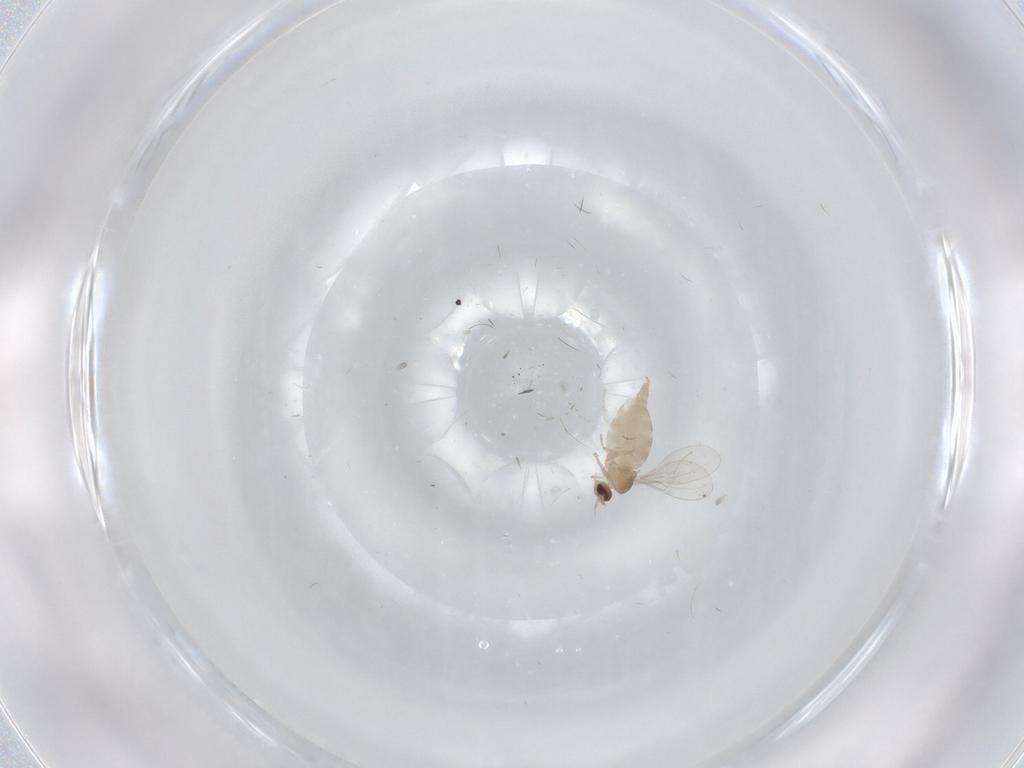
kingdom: Animalia
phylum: Arthropoda
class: Insecta
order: Diptera
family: Cecidomyiidae
